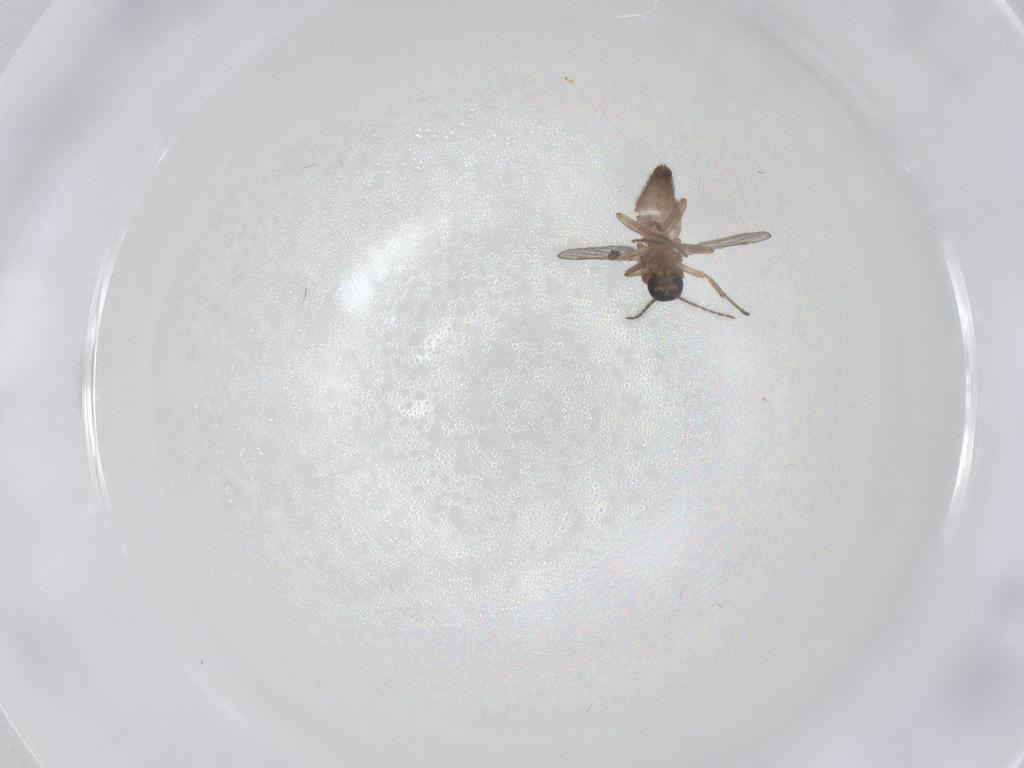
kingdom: Animalia
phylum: Arthropoda
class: Insecta
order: Diptera
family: Ceratopogonidae
